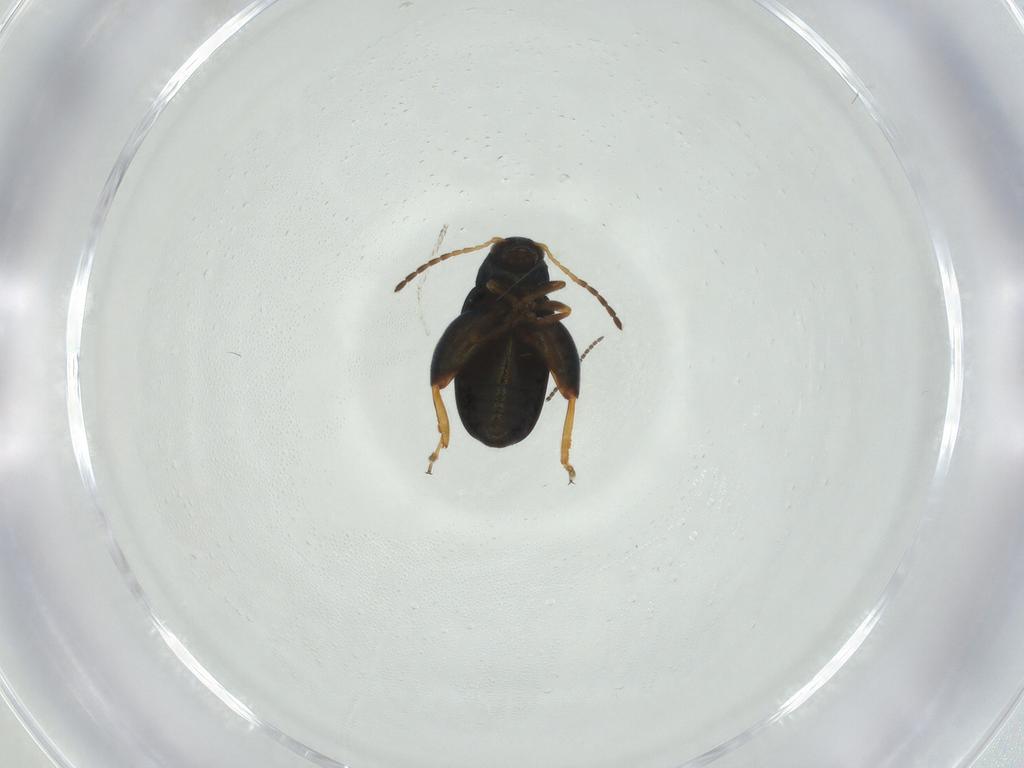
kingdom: Animalia
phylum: Arthropoda
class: Insecta
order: Coleoptera
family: Chrysomelidae
